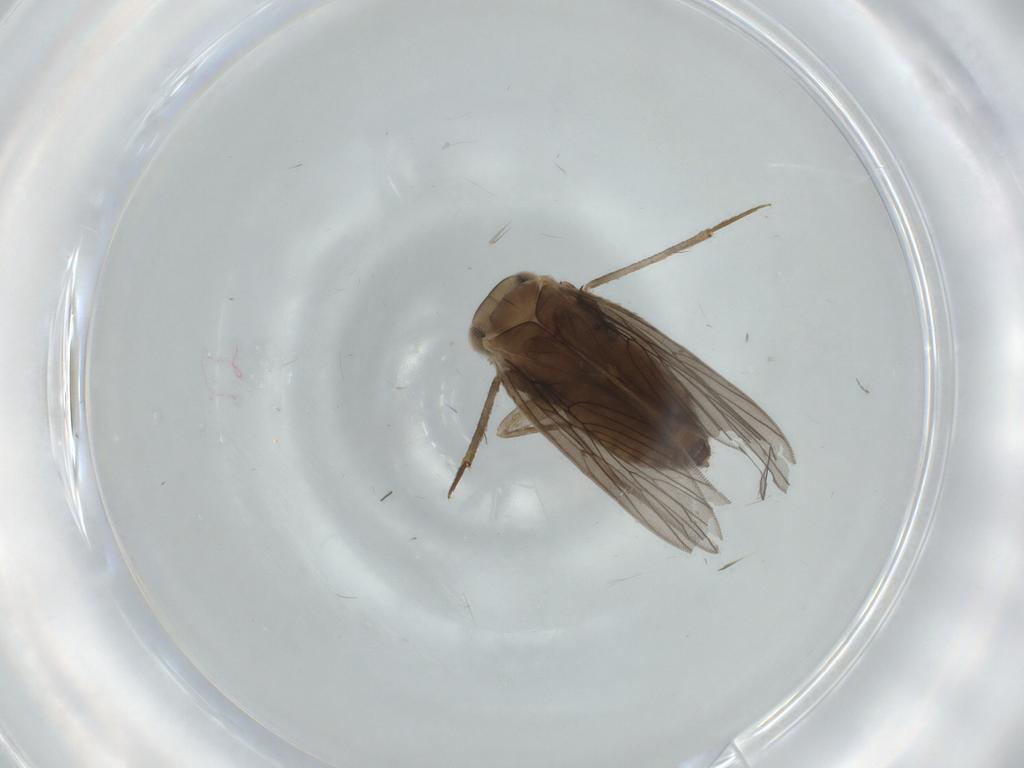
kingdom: Animalia
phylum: Arthropoda
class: Insecta
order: Psocodea
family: Lepidopsocidae
